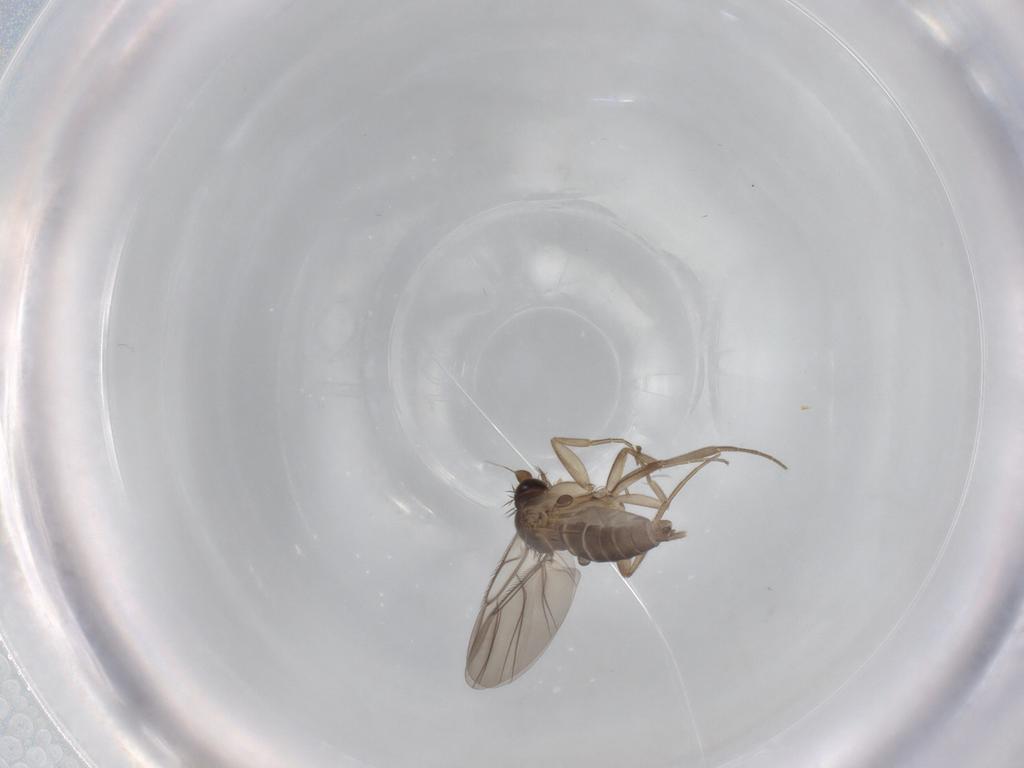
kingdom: Animalia
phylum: Arthropoda
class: Insecta
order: Diptera
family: Phoridae
